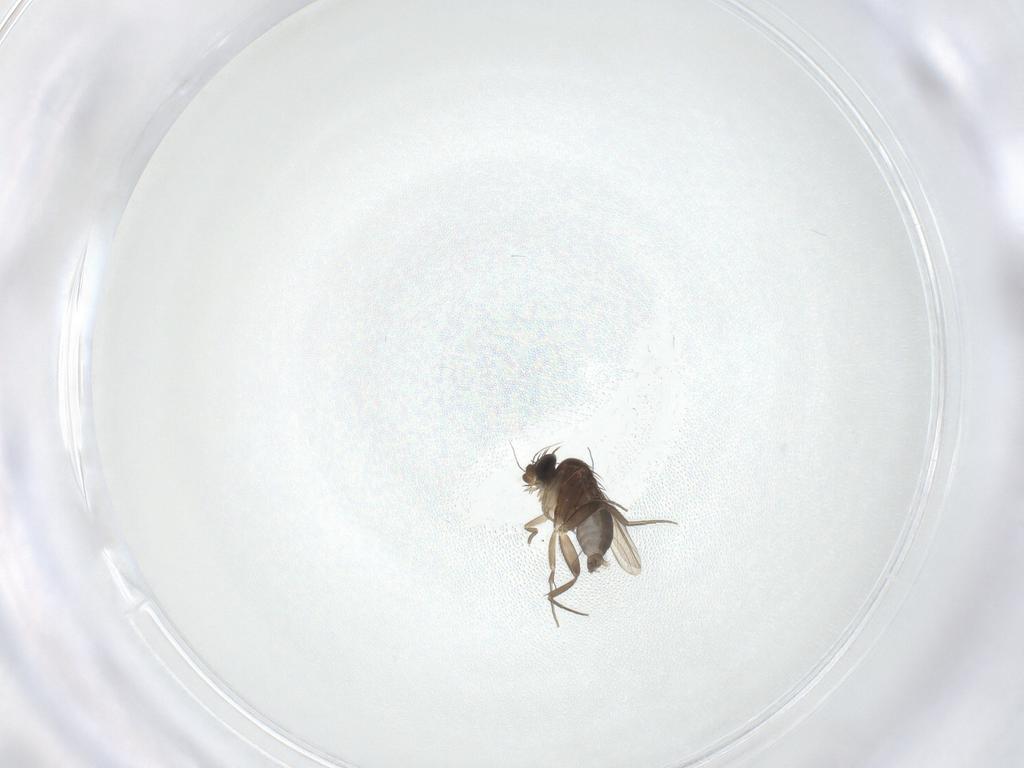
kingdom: Animalia
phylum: Arthropoda
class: Insecta
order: Diptera
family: Phoridae
